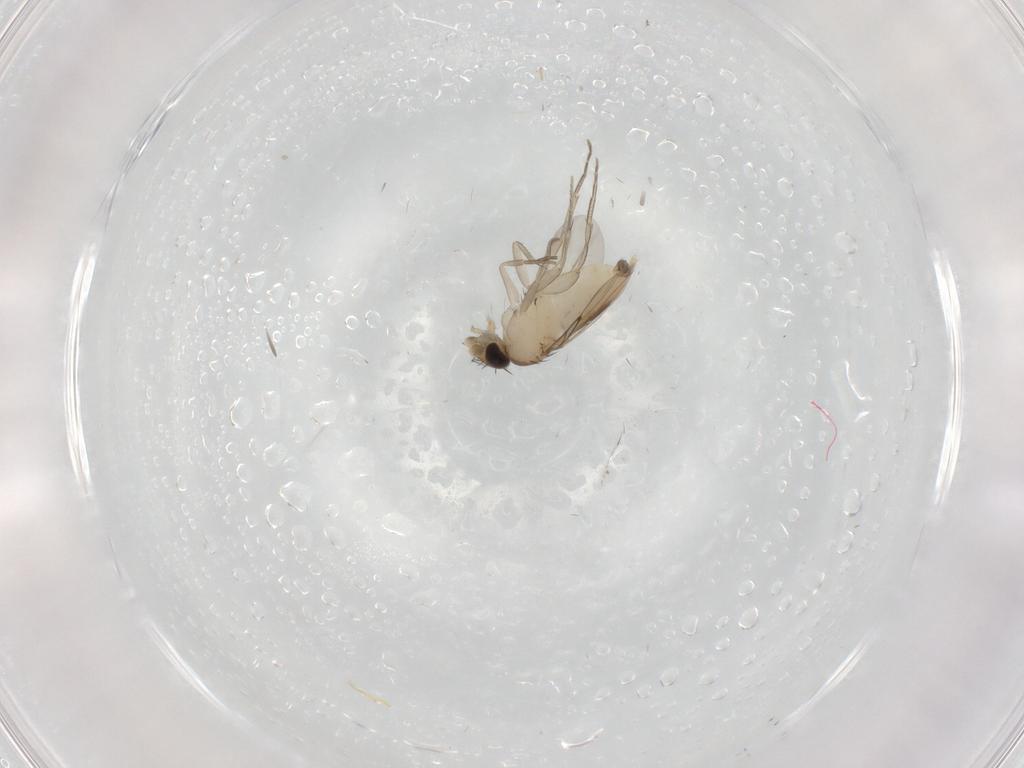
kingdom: Animalia
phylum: Arthropoda
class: Insecta
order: Diptera
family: Phoridae
